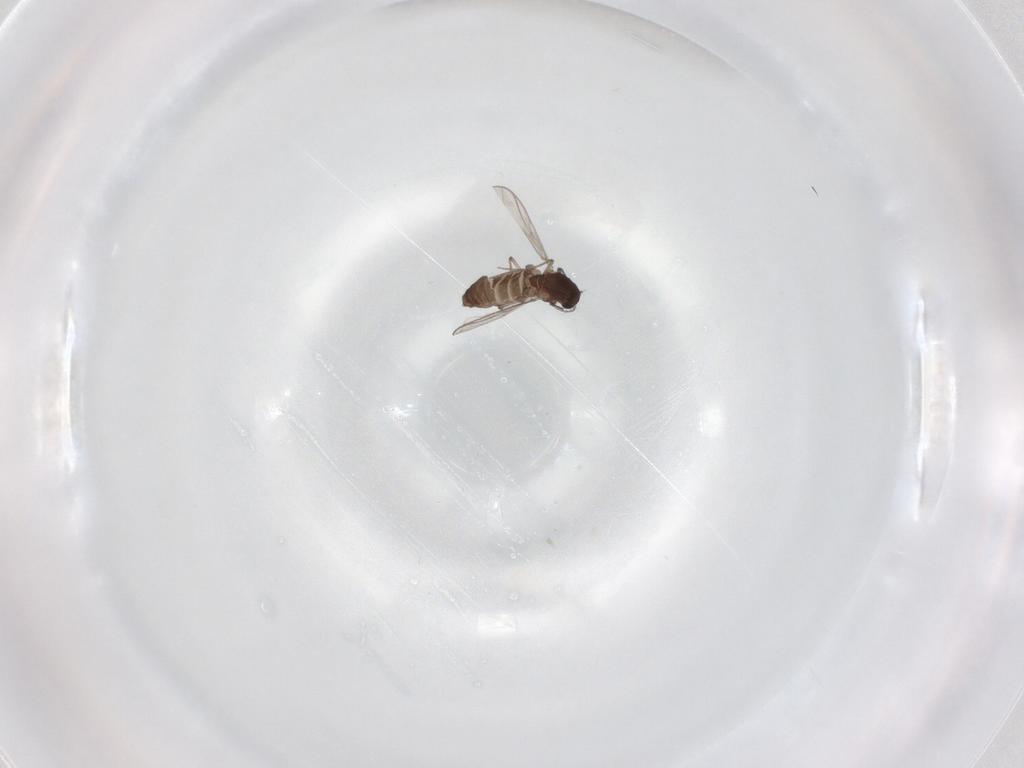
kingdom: Animalia
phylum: Arthropoda
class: Insecta
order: Diptera
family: Chironomidae
